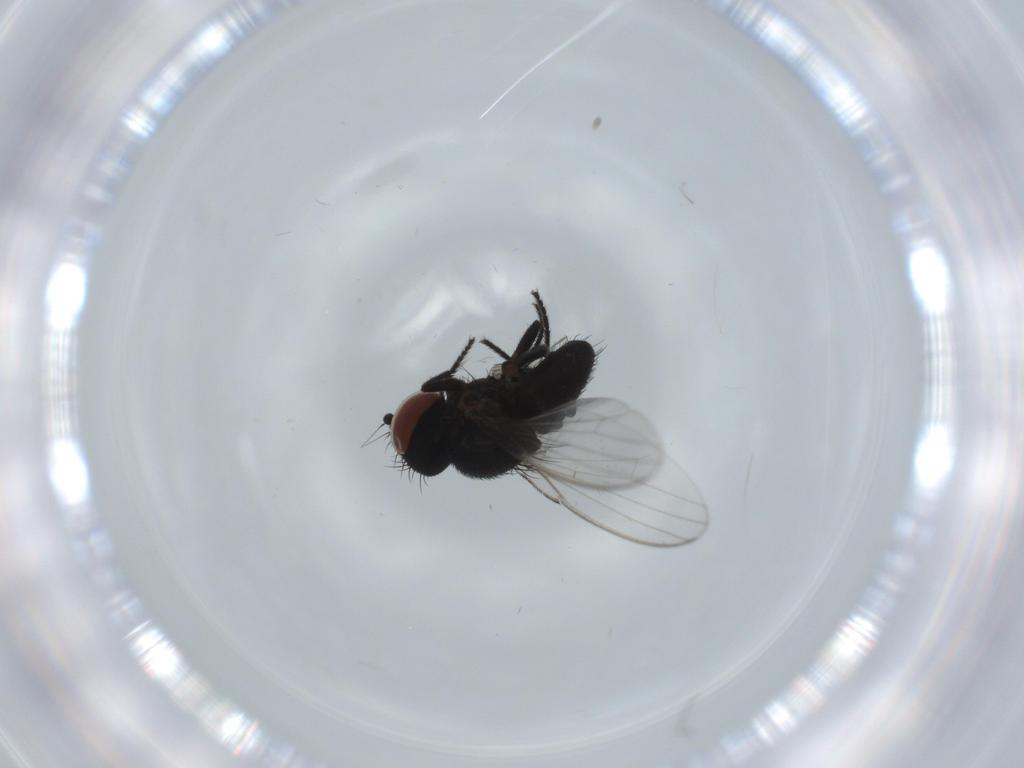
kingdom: Animalia
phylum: Arthropoda
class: Insecta
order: Diptera
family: Milichiidae
